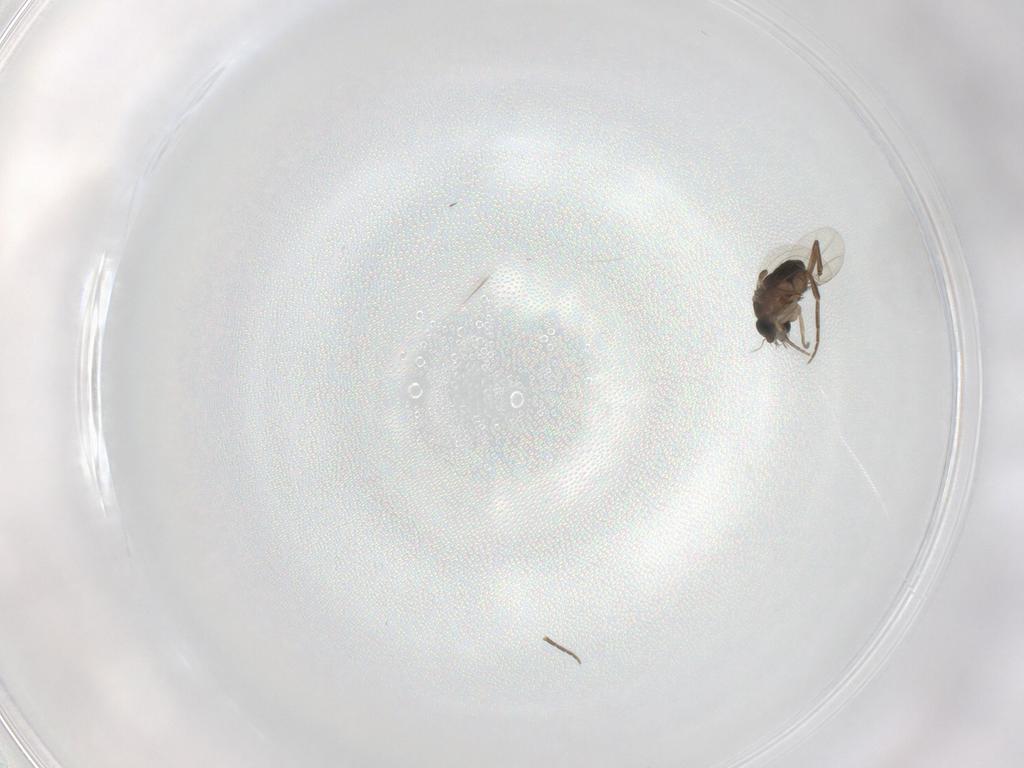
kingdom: Animalia
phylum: Arthropoda
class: Insecta
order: Diptera
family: Phoridae
